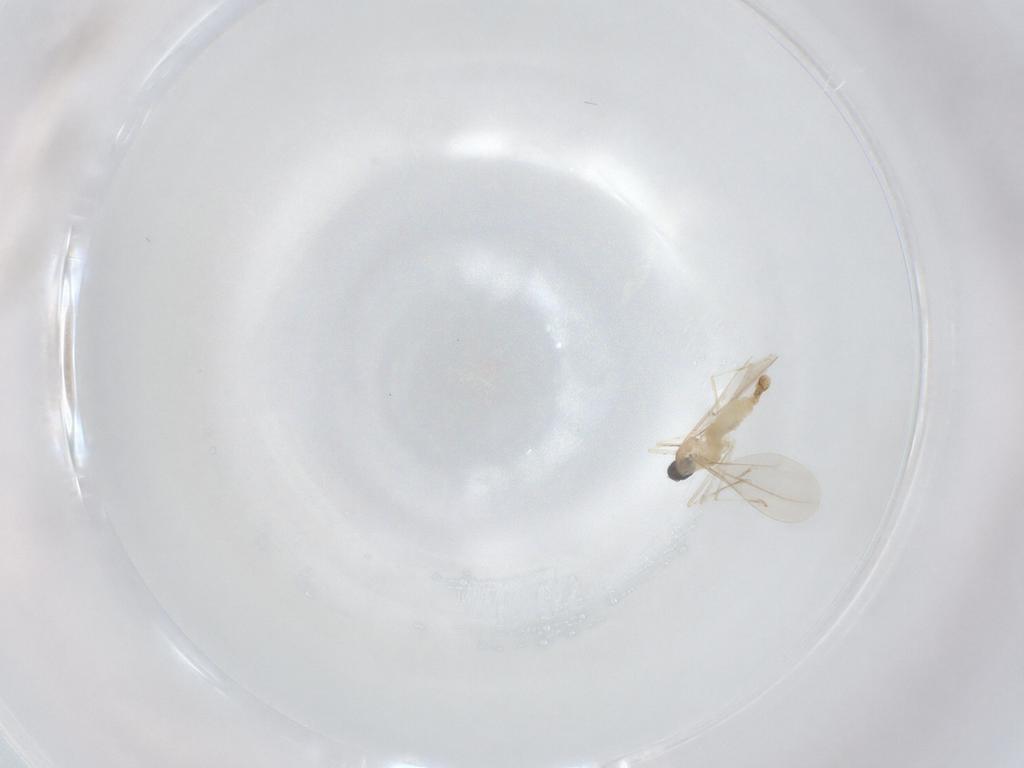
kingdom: Animalia
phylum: Arthropoda
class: Insecta
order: Diptera
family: Cecidomyiidae
